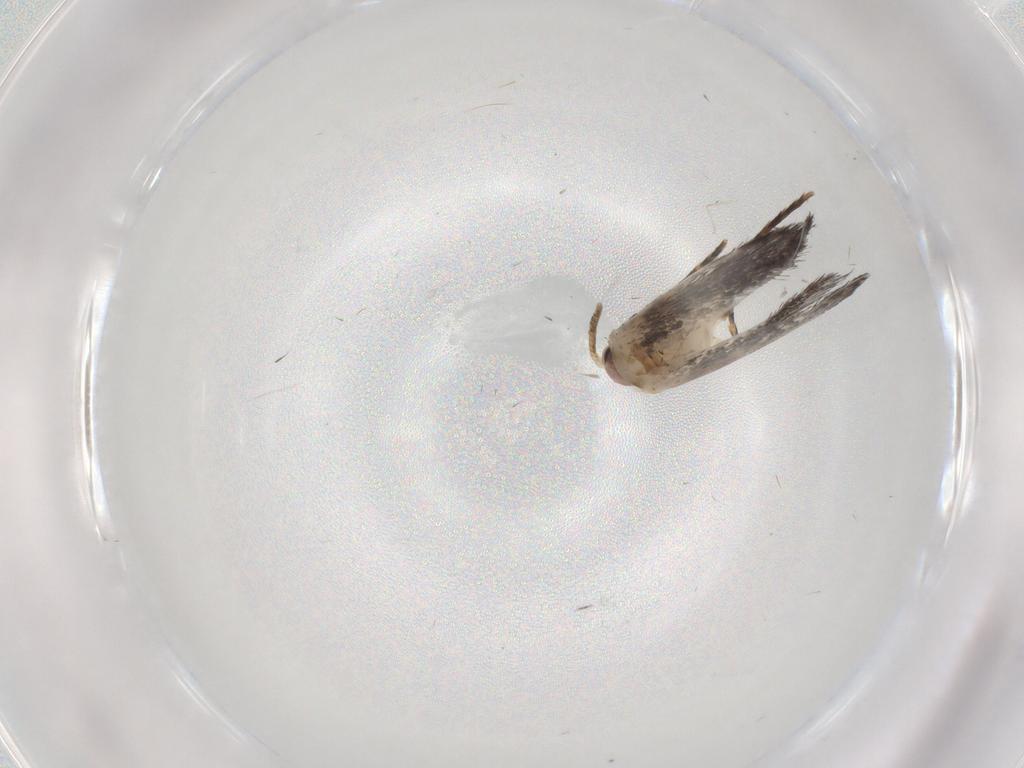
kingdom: Animalia
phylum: Arthropoda
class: Insecta
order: Lepidoptera
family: Tineidae
